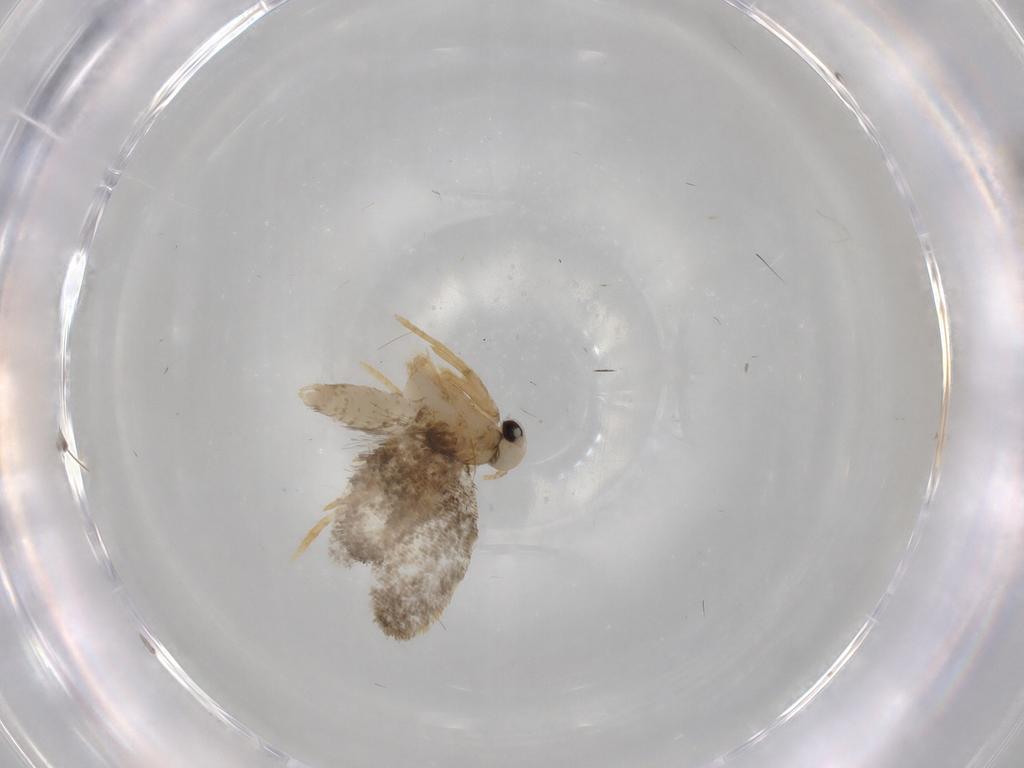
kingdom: Animalia
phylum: Arthropoda
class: Insecta
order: Lepidoptera
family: Psychidae
